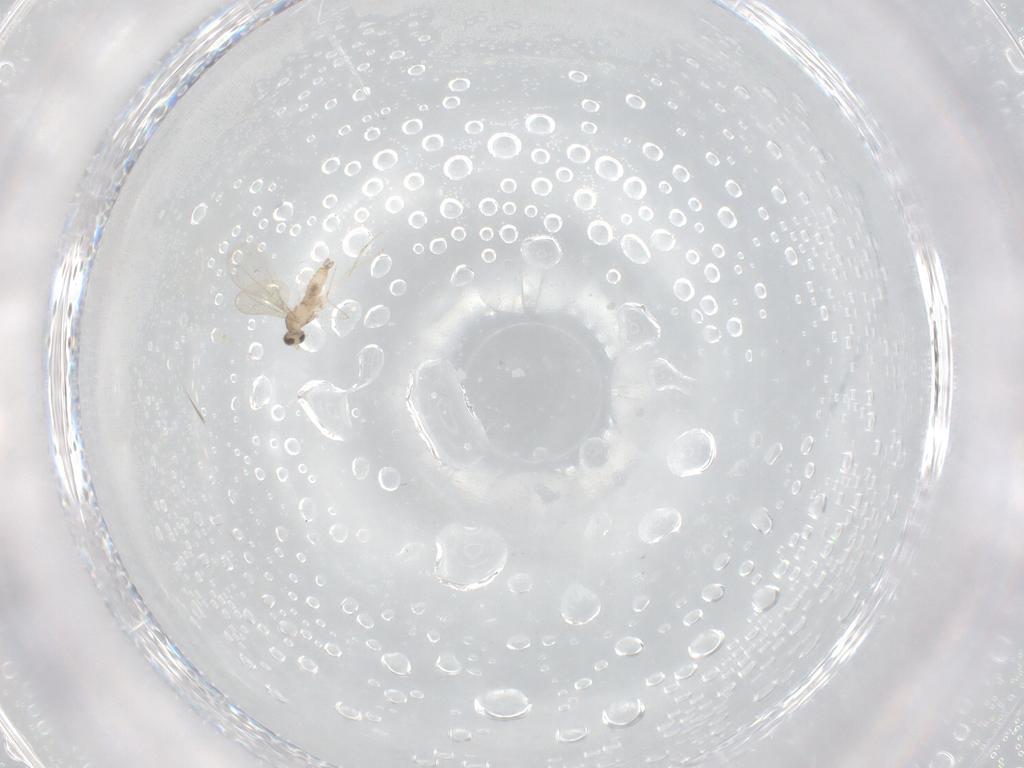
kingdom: Animalia
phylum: Arthropoda
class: Insecta
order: Diptera
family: Cecidomyiidae
